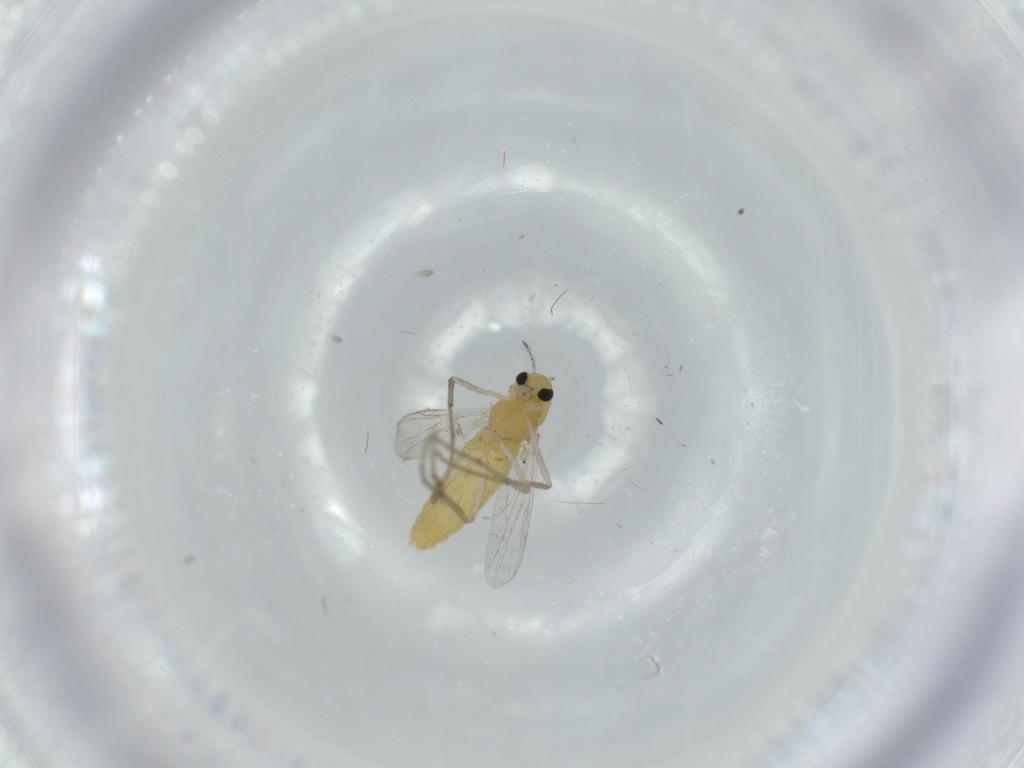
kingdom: Animalia
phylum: Arthropoda
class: Insecta
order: Diptera
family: Chironomidae
